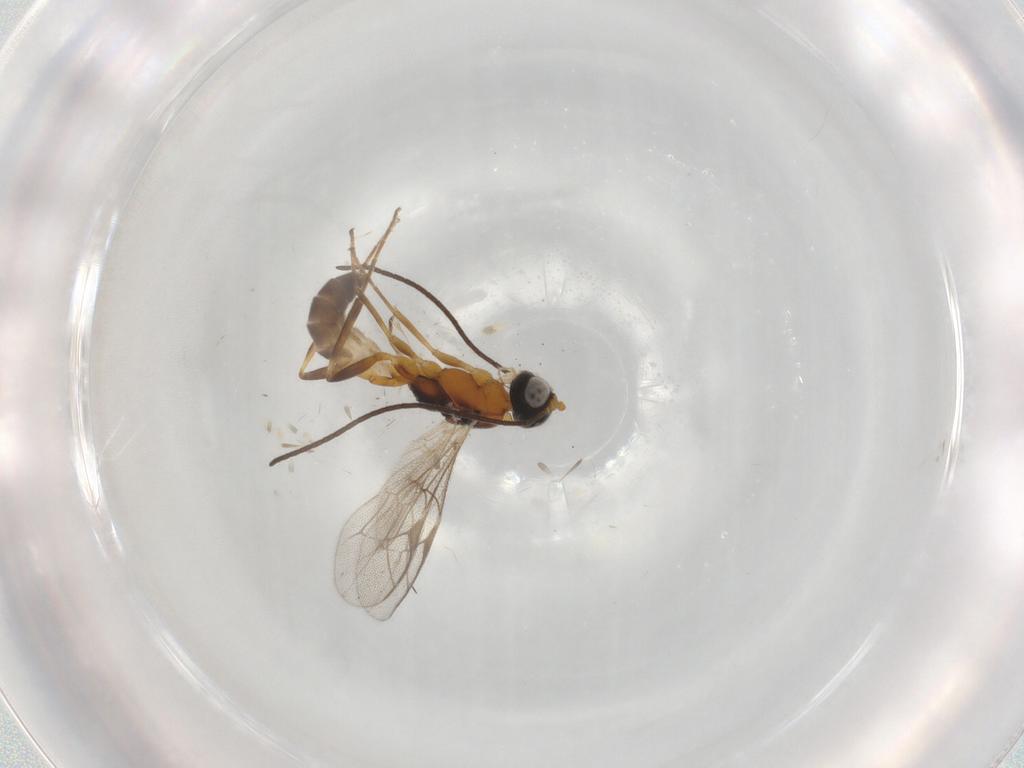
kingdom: Animalia
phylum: Arthropoda
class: Insecta
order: Hymenoptera
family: Ichneumonidae
